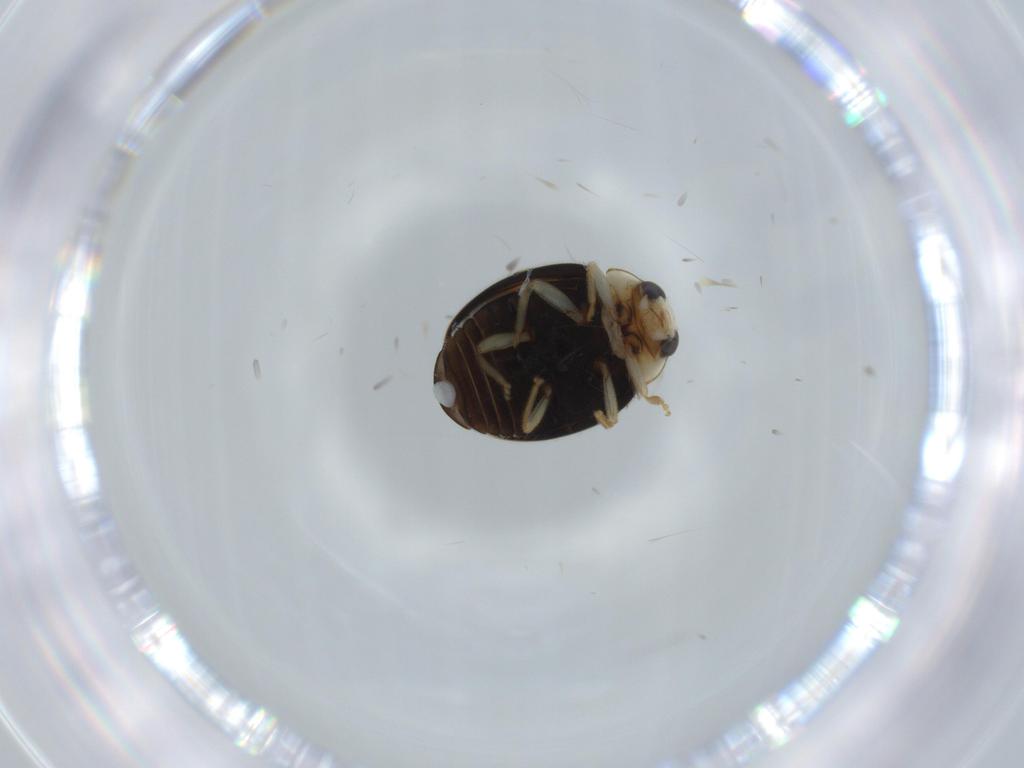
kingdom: Animalia
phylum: Arthropoda
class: Insecta
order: Coleoptera
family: Coccinellidae
